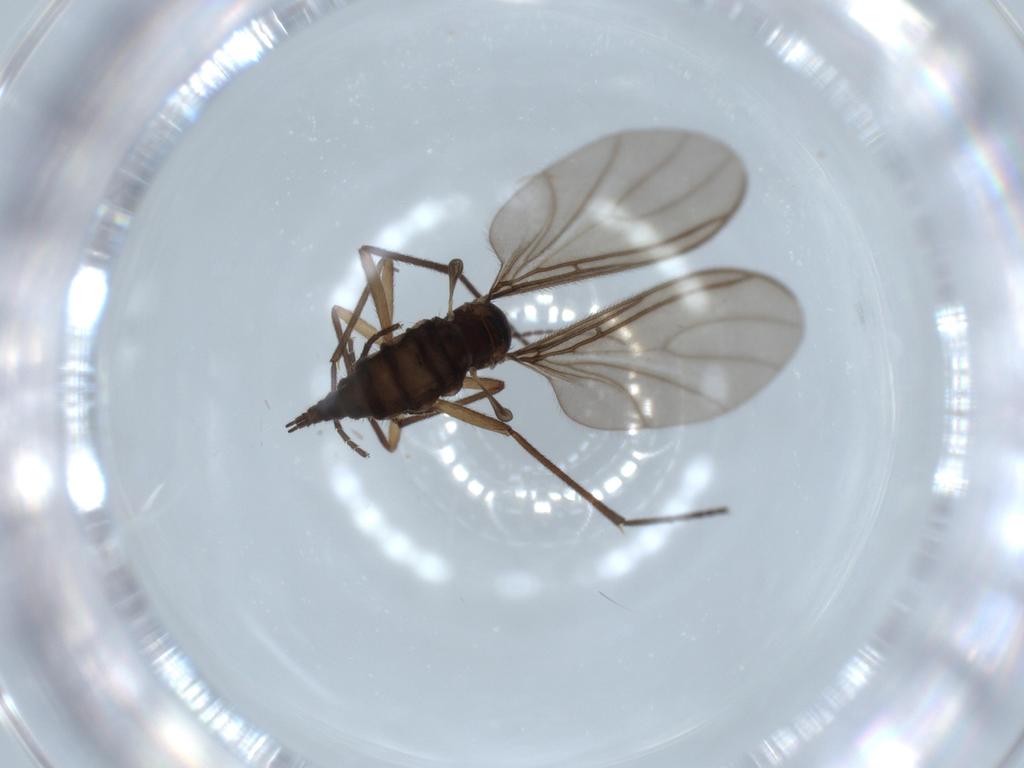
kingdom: Animalia
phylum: Arthropoda
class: Insecta
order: Diptera
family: Sciaridae
